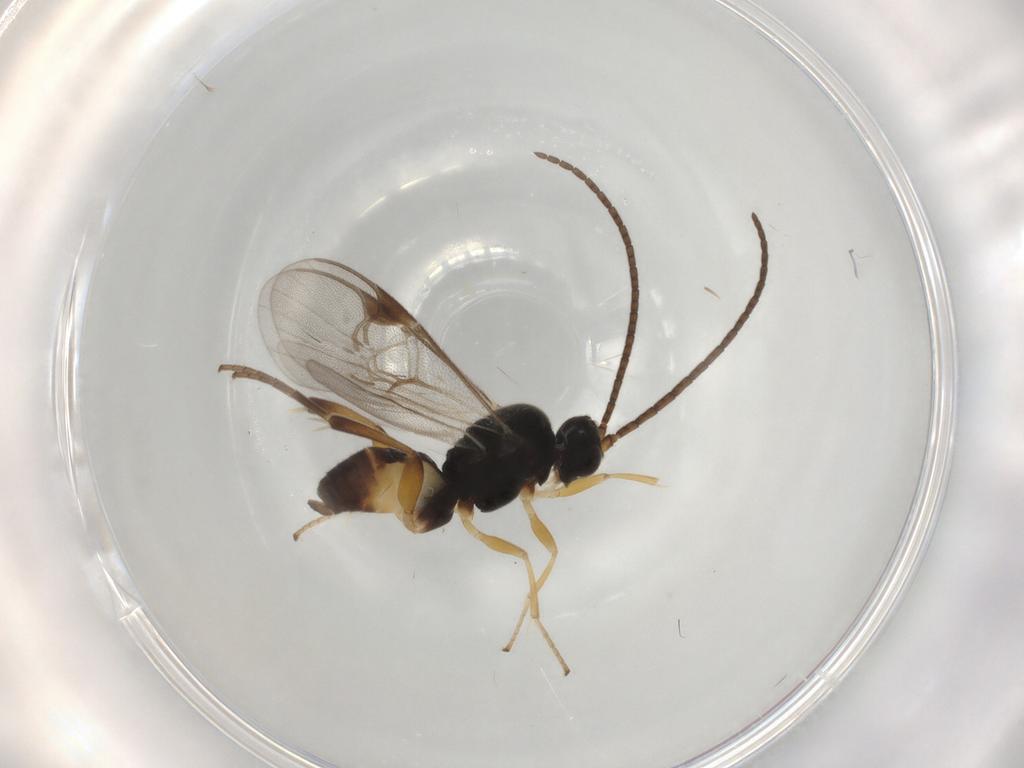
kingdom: Animalia
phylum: Arthropoda
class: Insecta
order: Hymenoptera
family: Braconidae
